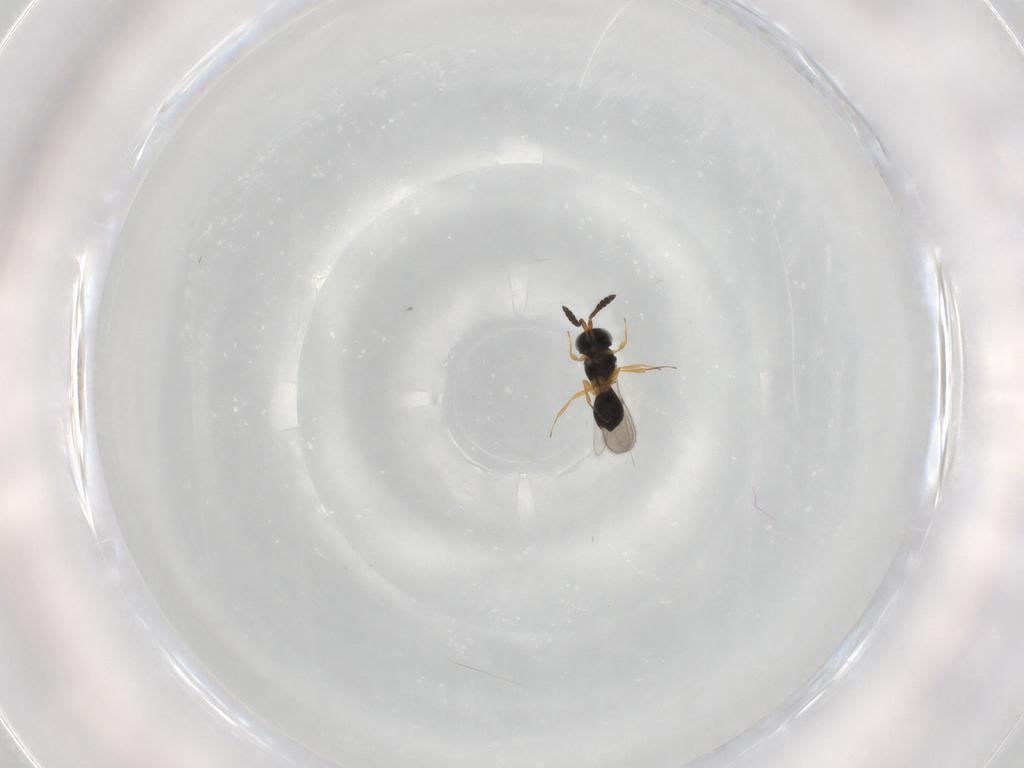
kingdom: Animalia
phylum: Arthropoda
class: Insecta
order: Hymenoptera
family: Scelionidae
